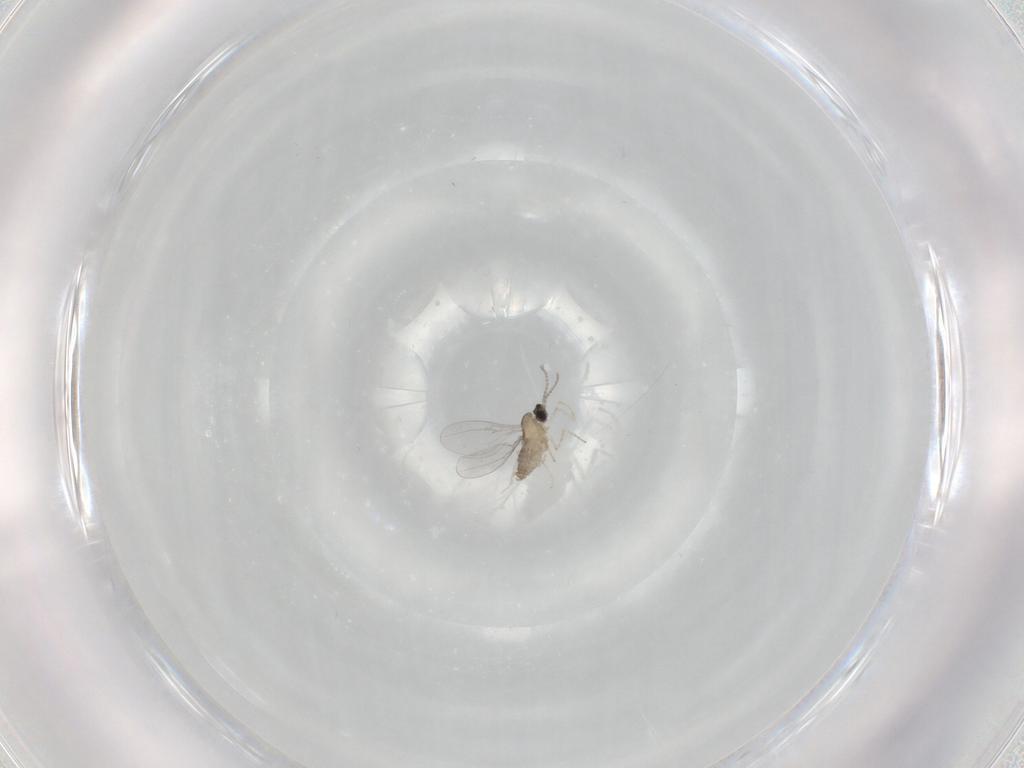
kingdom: Animalia
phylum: Arthropoda
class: Insecta
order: Diptera
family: Cecidomyiidae
